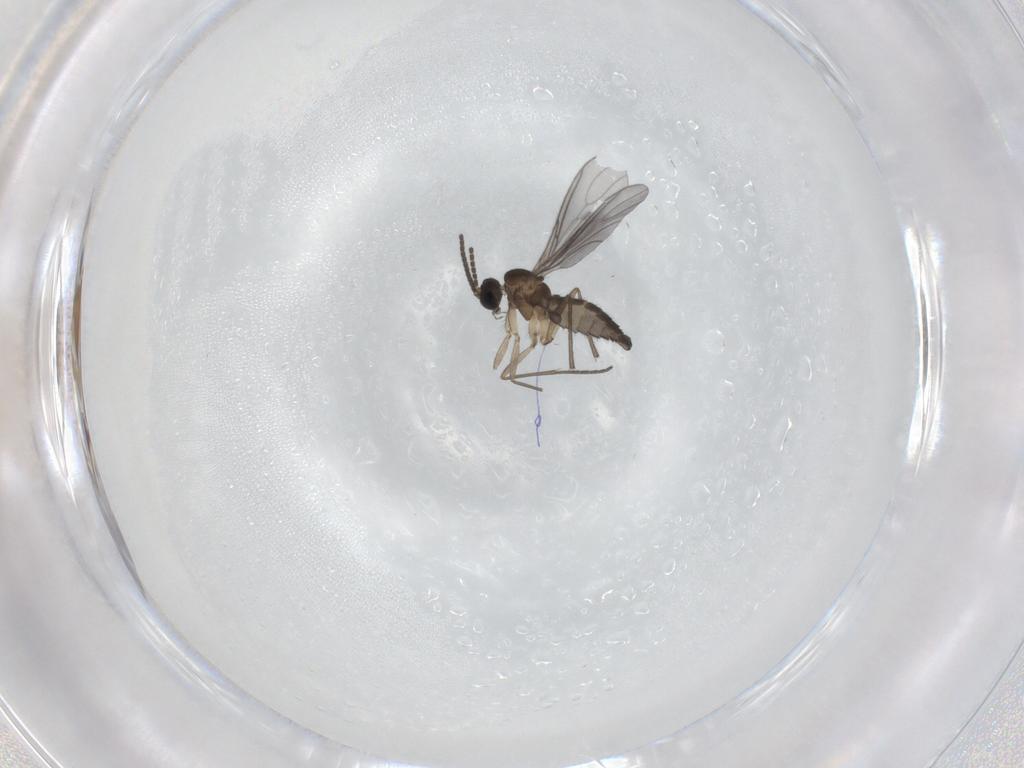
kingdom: Animalia
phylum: Arthropoda
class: Insecta
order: Diptera
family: Sciaridae
